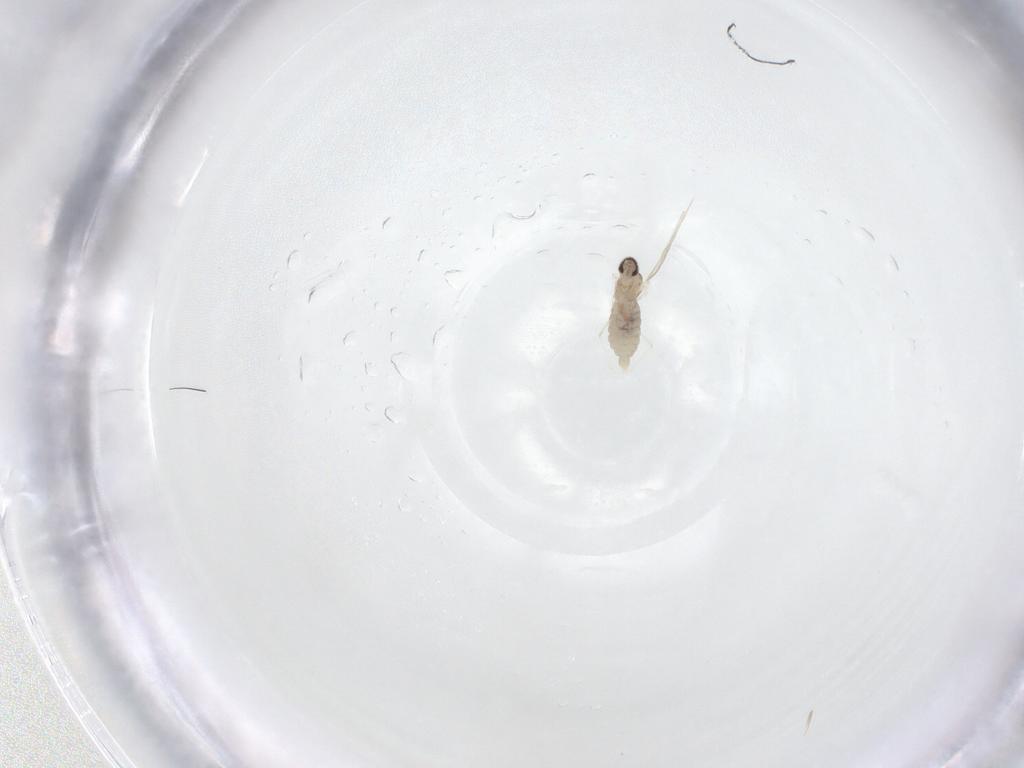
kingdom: Animalia
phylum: Arthropoda
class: Insecta
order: Diptera
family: Cecidomyiidae
